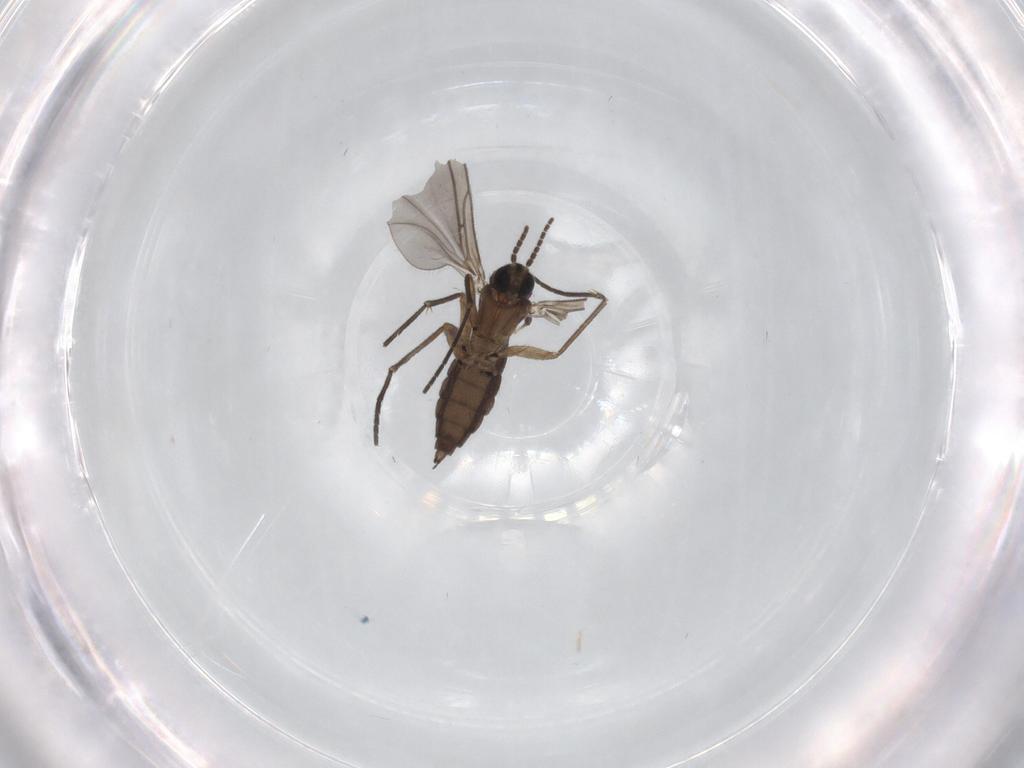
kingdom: Animalia
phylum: Arthropoda
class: Insecta
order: Diptera
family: Sciaridae
